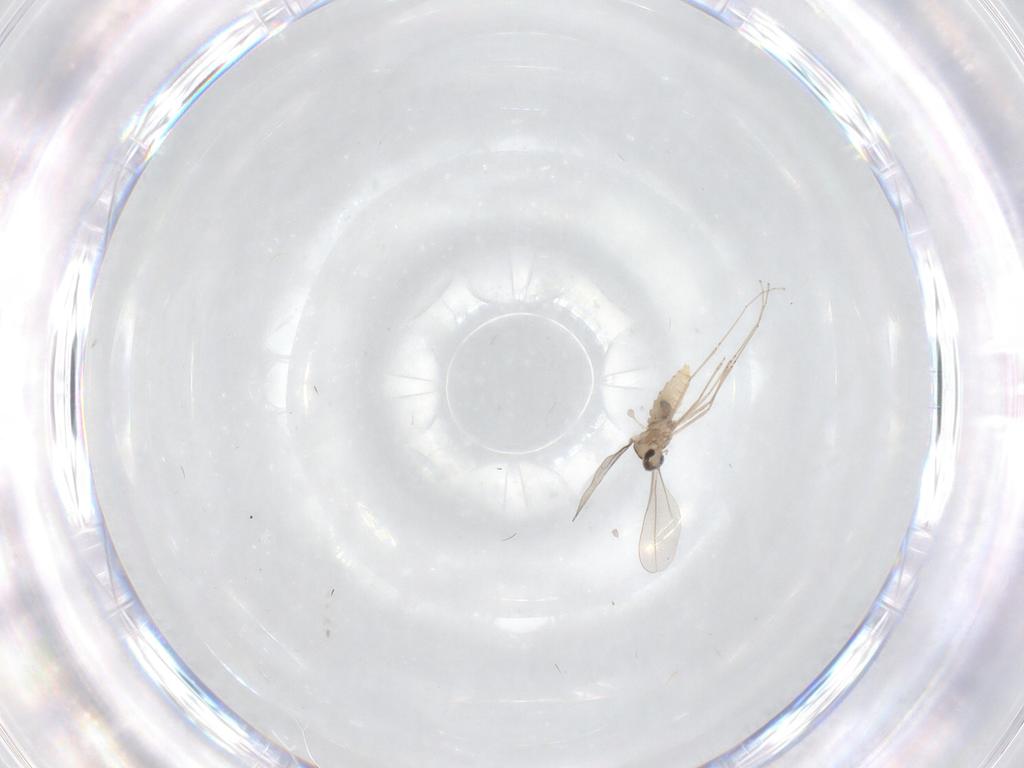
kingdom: Animalia
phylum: Arthropoda
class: Insecta
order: Diptera
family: Cecidomyiidae
